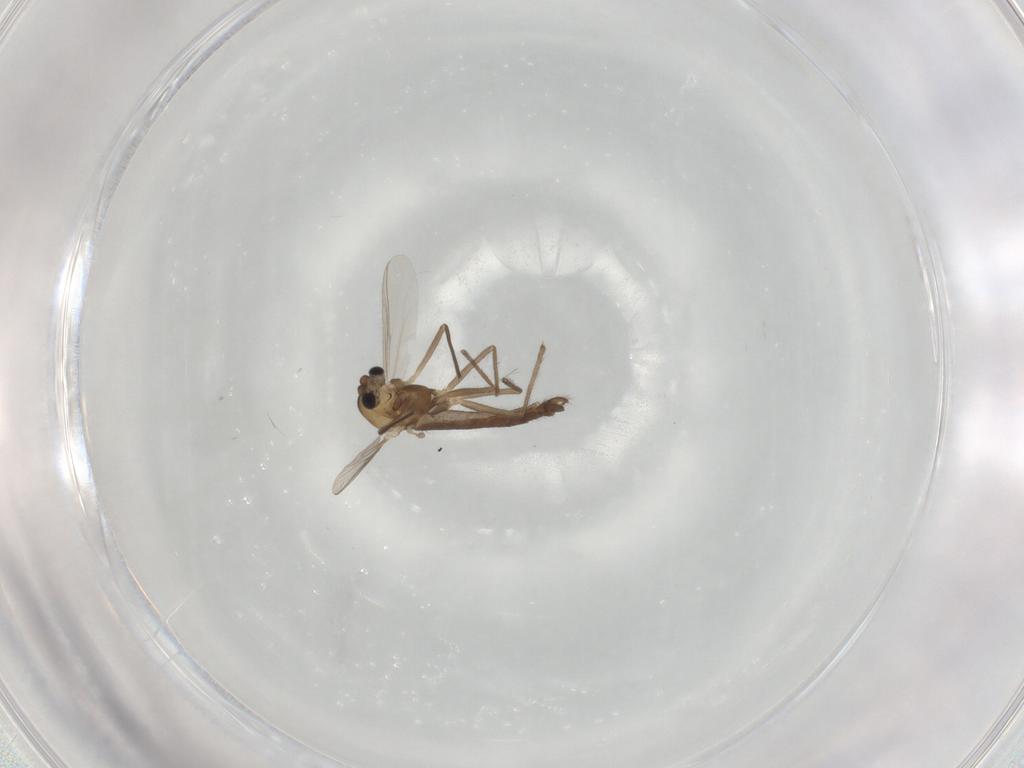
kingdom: Animalia
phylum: Arthropoda
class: Insecta
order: Diptera
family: Chironomidae
